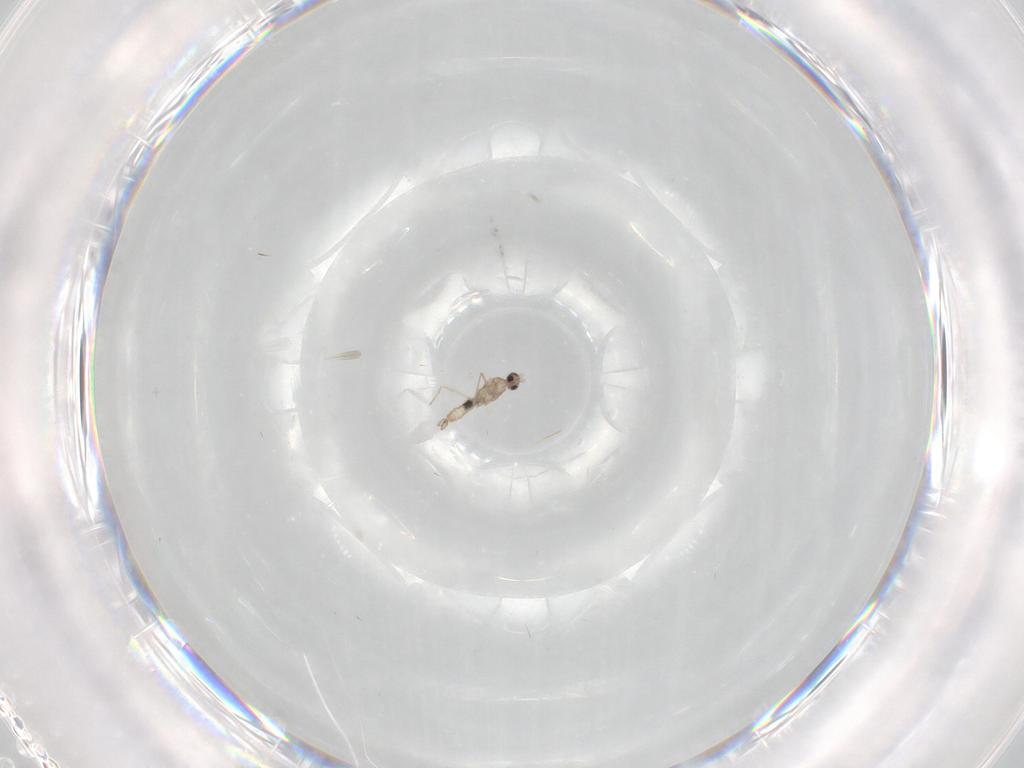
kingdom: Animalia
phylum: Arthropoda
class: Insecta
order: Diptera
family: Cecidomyiidae
